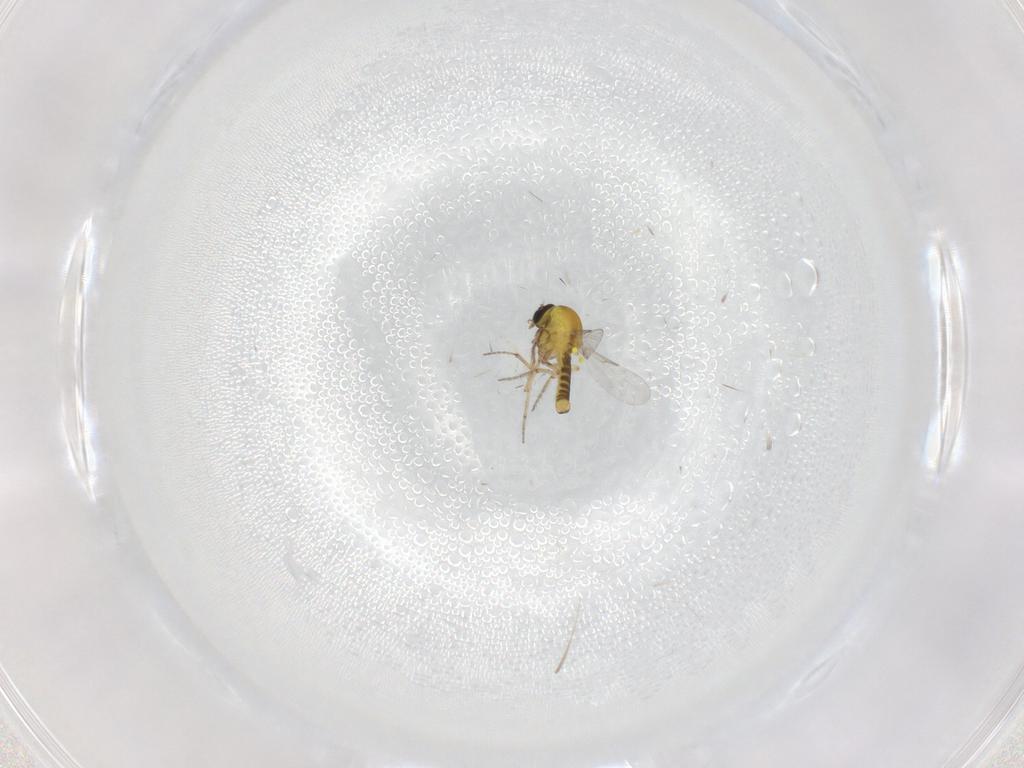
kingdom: Animalia
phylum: Arthropoda
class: Insecta
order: Diptera
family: Ceratopogonidae
